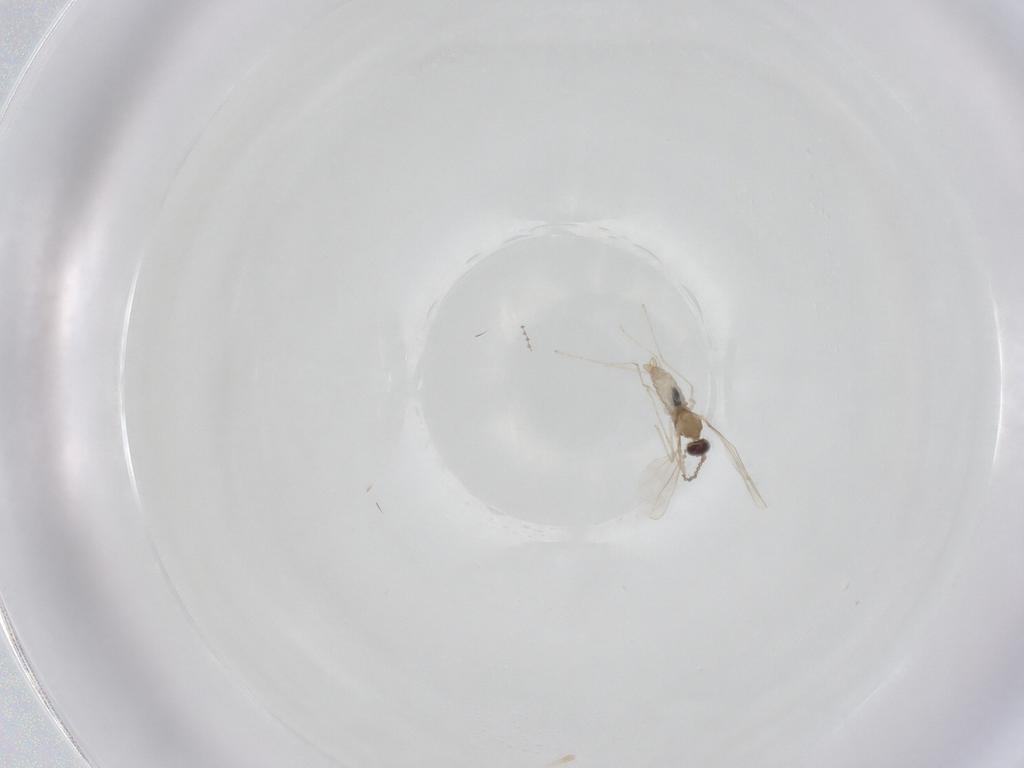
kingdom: Animalia
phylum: Arthropoda
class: Insecta
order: Diptera
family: Cecidomyiidae
